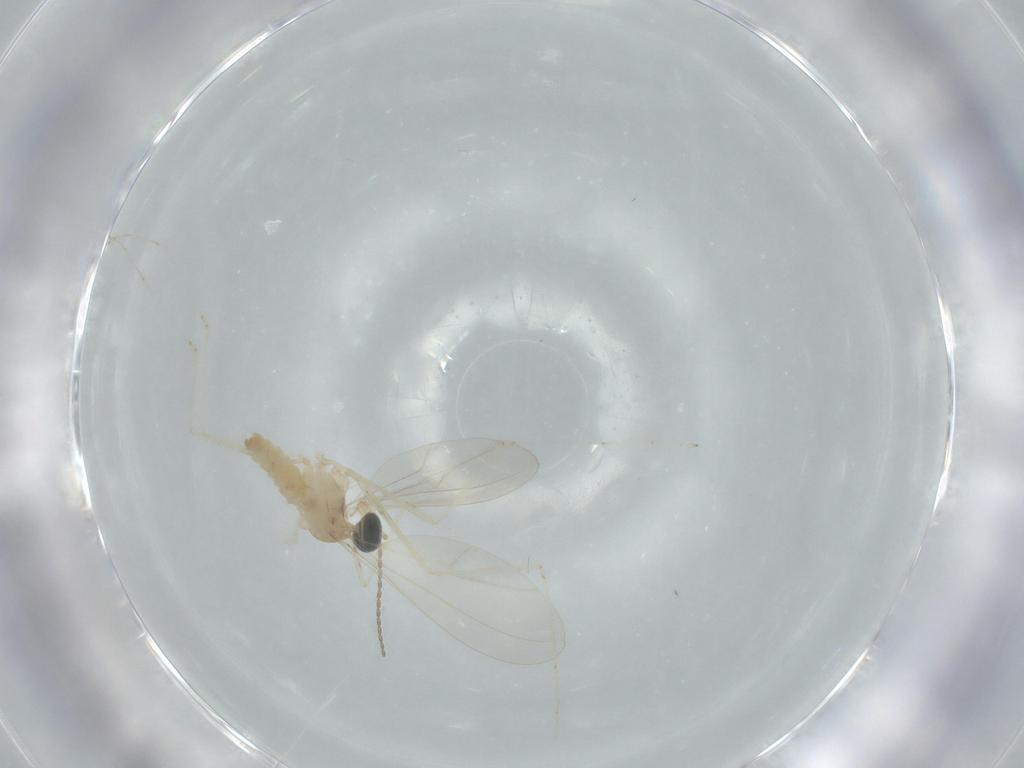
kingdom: Animalia
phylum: Arthropoda
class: Insecta
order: Diptera
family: Cecidomyiidae
